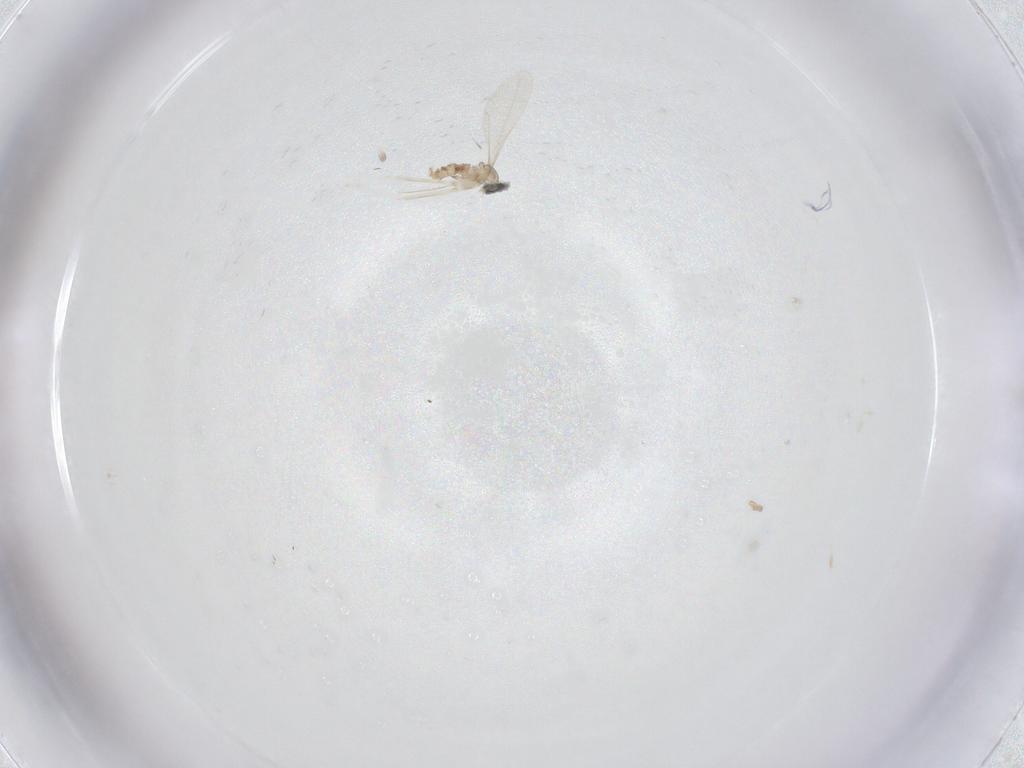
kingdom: Animalia
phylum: Arthropoda
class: Insecta
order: Diptera
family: Cecidomyiidae
